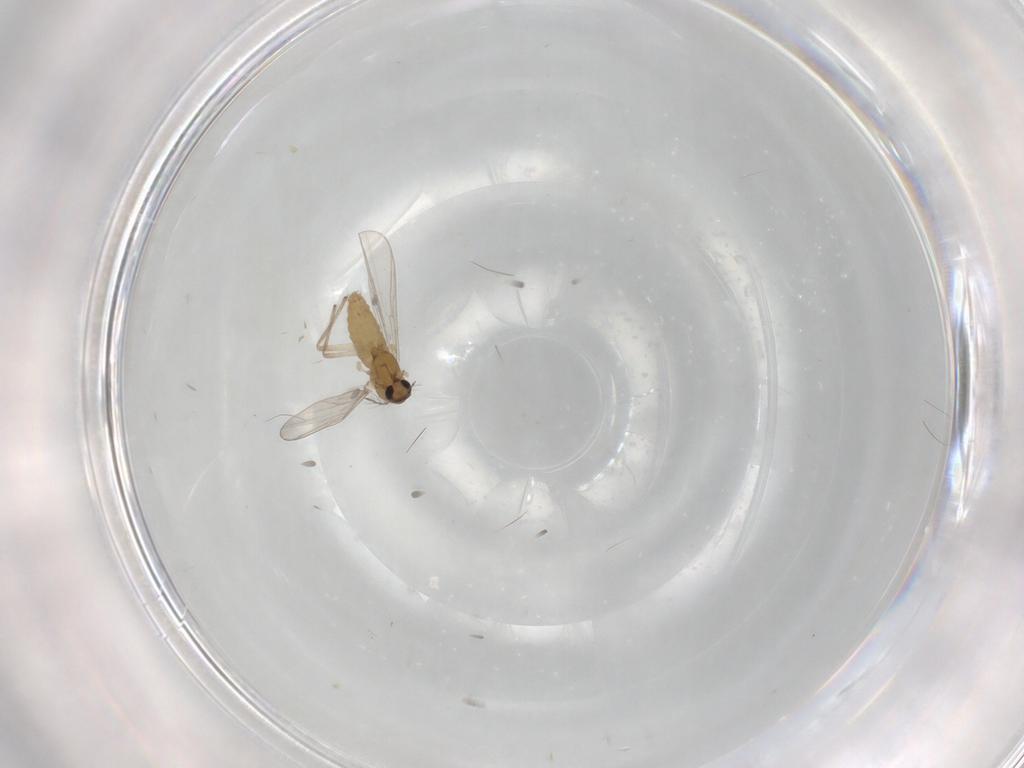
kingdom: Animalia
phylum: Arthropoda
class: Insecta
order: Diptera
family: Chironomidae
